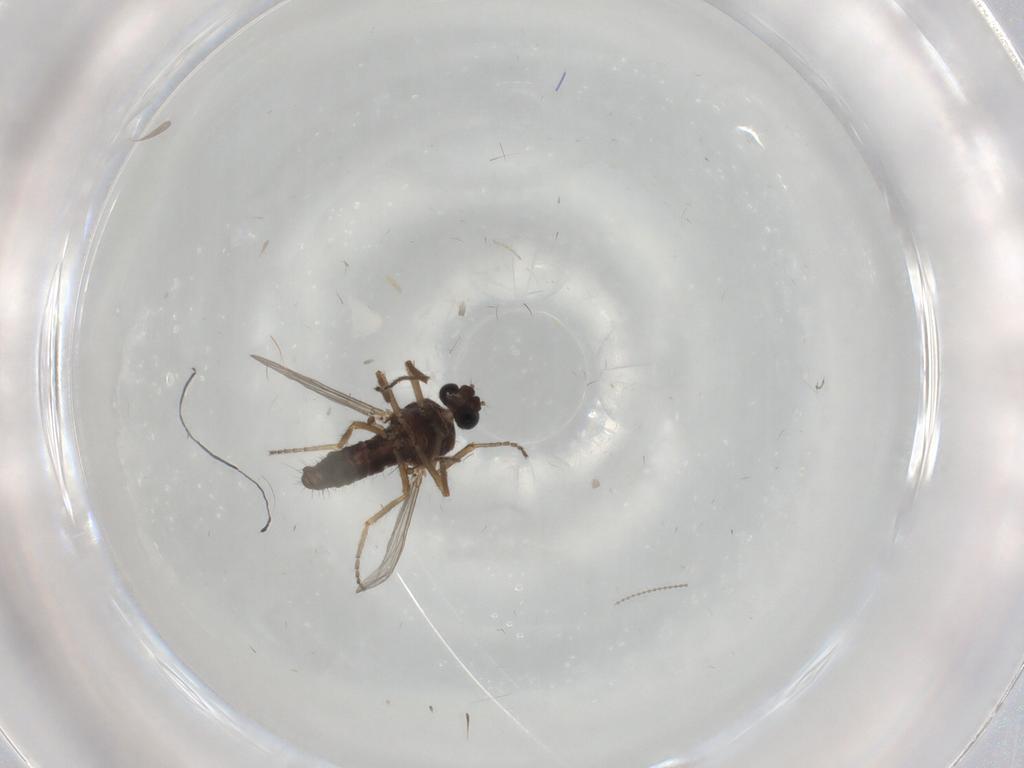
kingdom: Animalia
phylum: Arthropoda
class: Insecta
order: Diptera
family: Ceratopogonidae
